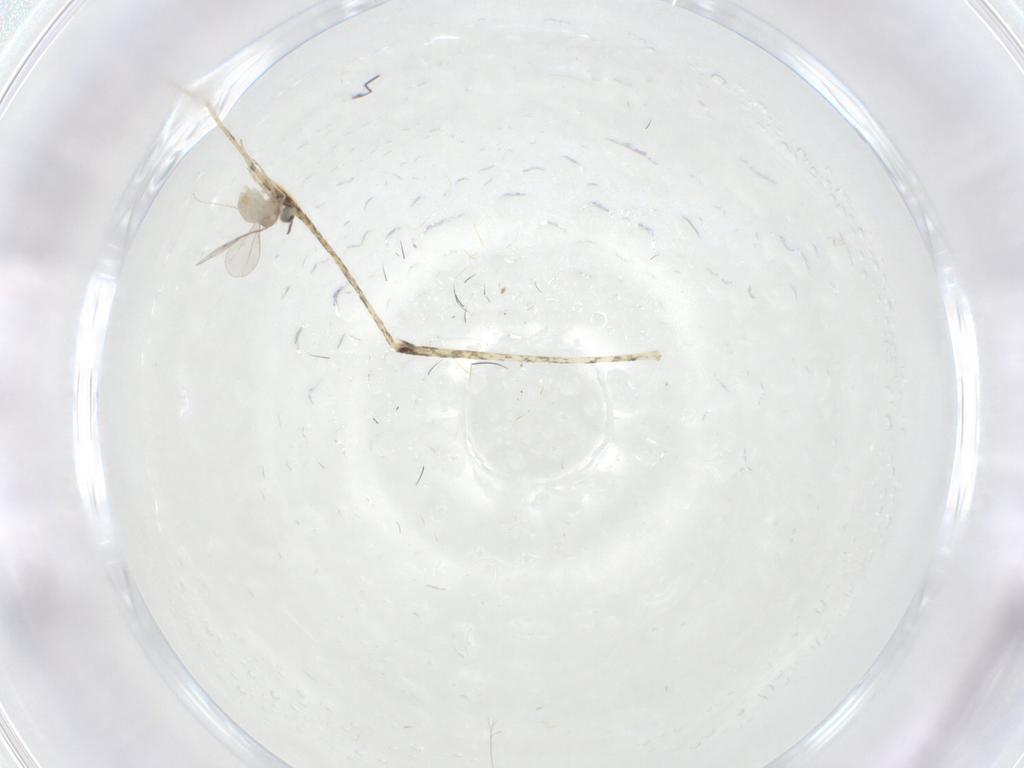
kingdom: Animalia
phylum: Arthropoda
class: Insecta
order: Diptera
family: Culicidae
